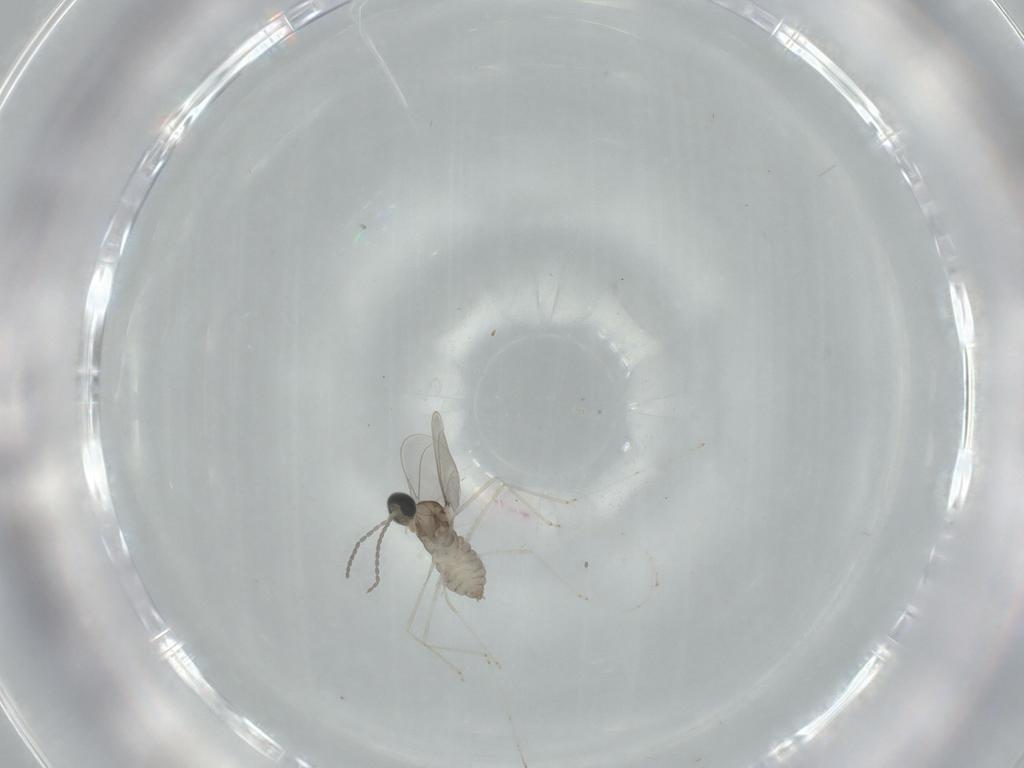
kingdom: Animalia
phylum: Arthropoda
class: Insecta
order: Diptera
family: Cecidomyiidae
